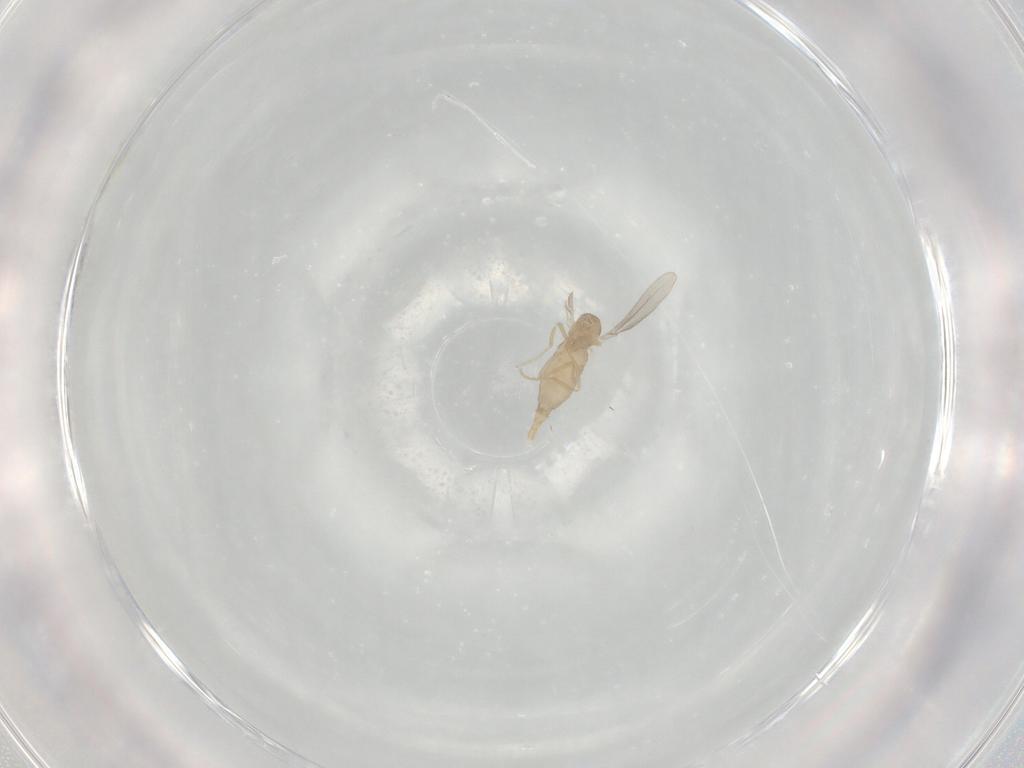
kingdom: Animalia
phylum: Arthropoda
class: Insecta
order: Diptera
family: Cecidomyiidae
